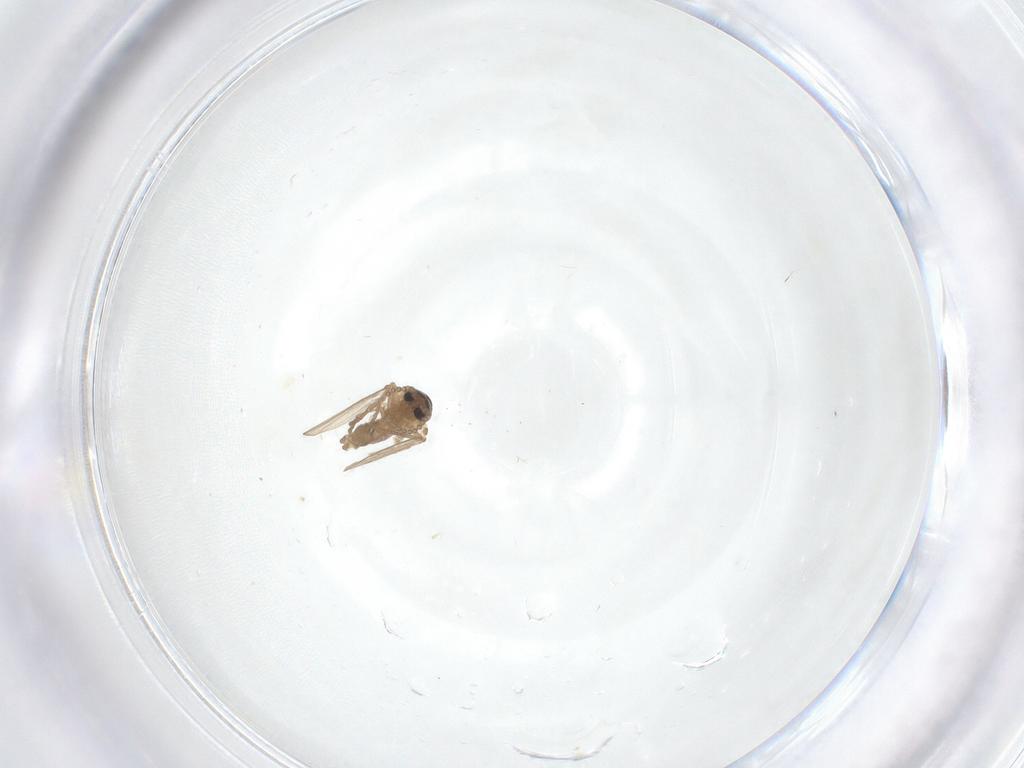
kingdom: Animalia
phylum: Arthropoda
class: Insecta
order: Diptera
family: Psychodidae
